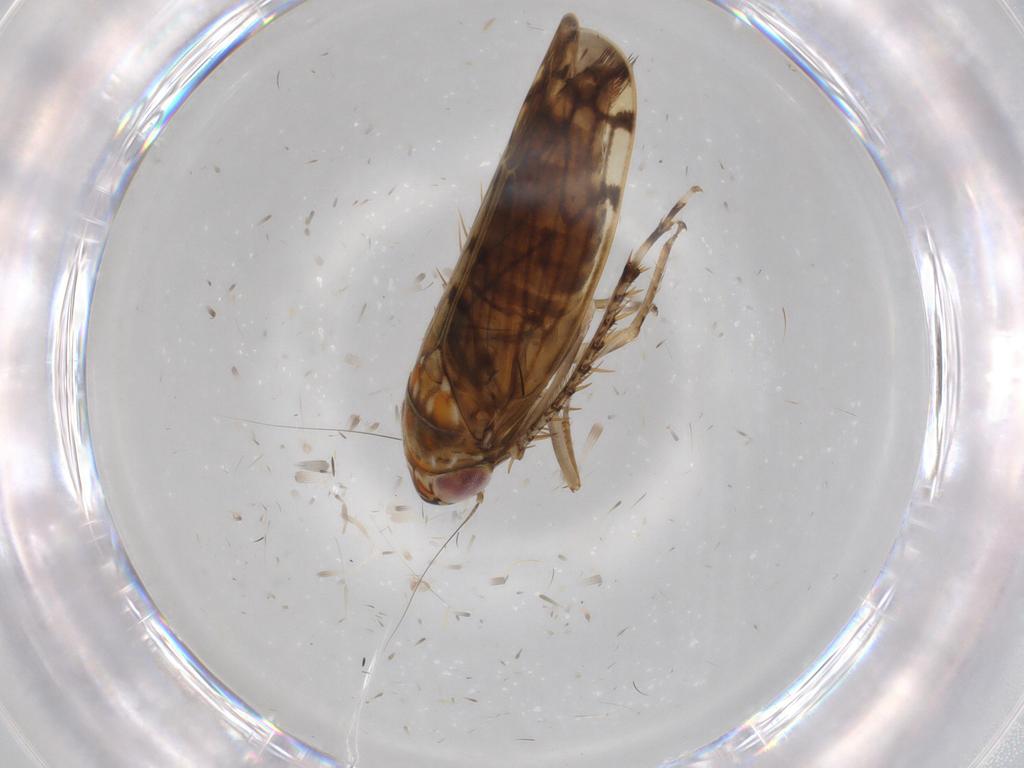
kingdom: Animalia
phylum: Arthropoda
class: Insecta
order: Hemiptera
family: Cicadellidae
